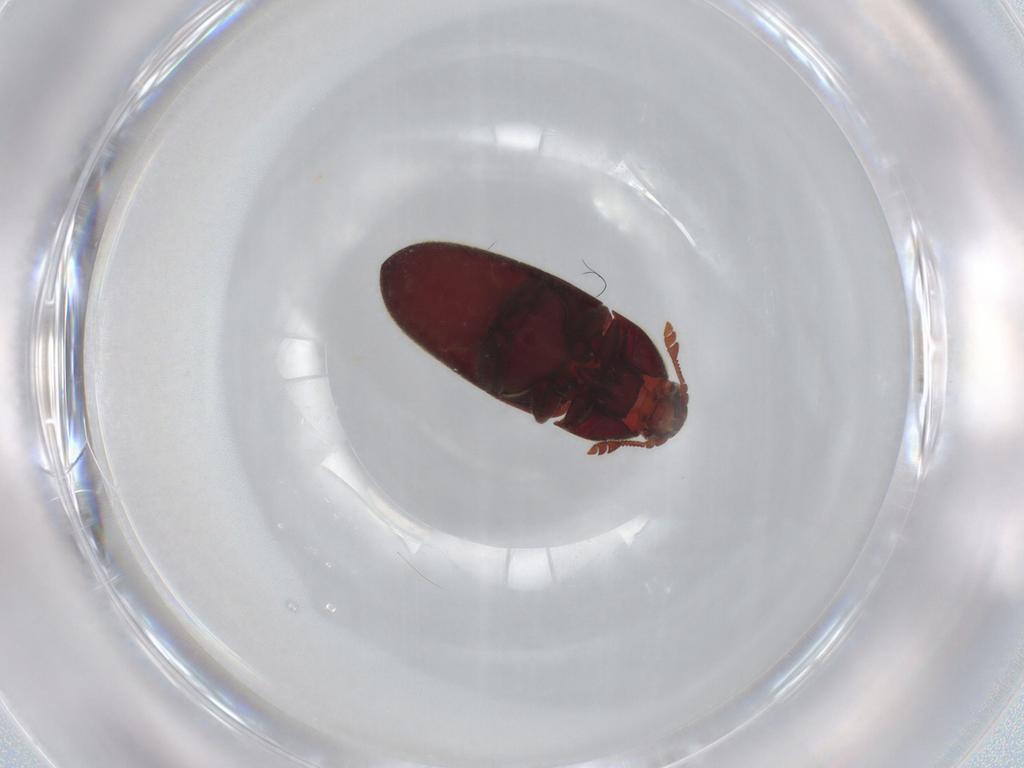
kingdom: Animalia
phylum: Arthropoda
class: Insecta
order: Coleoptera
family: Throscidae
